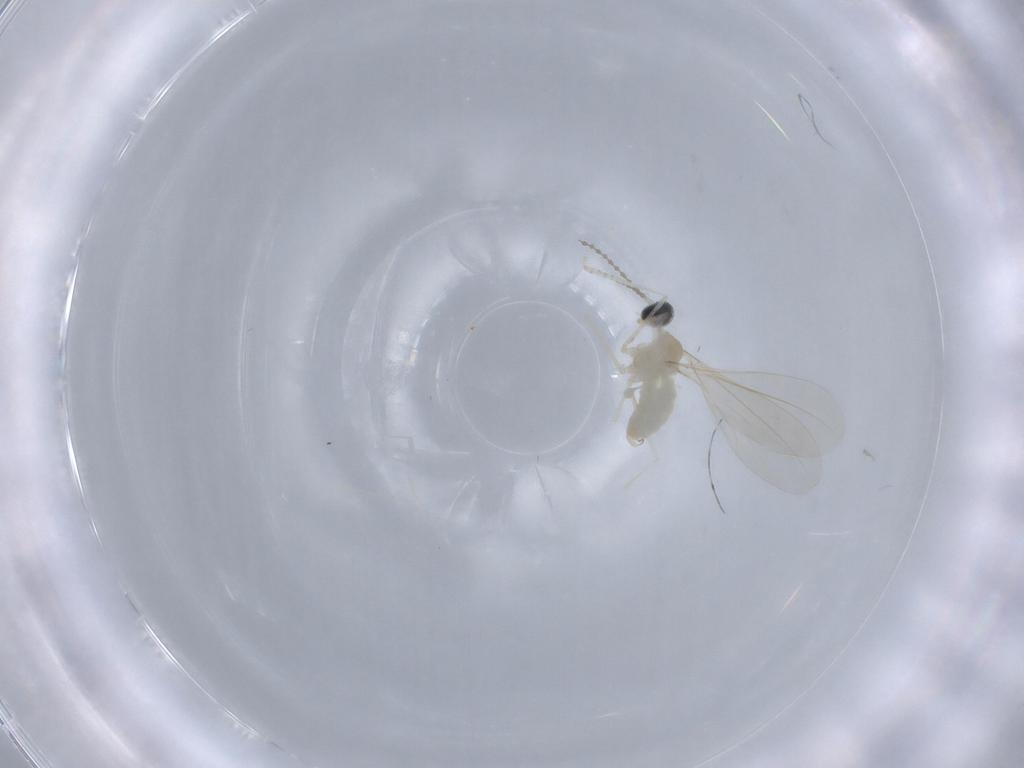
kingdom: Animalia
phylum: Arthropoda
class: Insecta
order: Diptera
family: Cecidomyiidae
